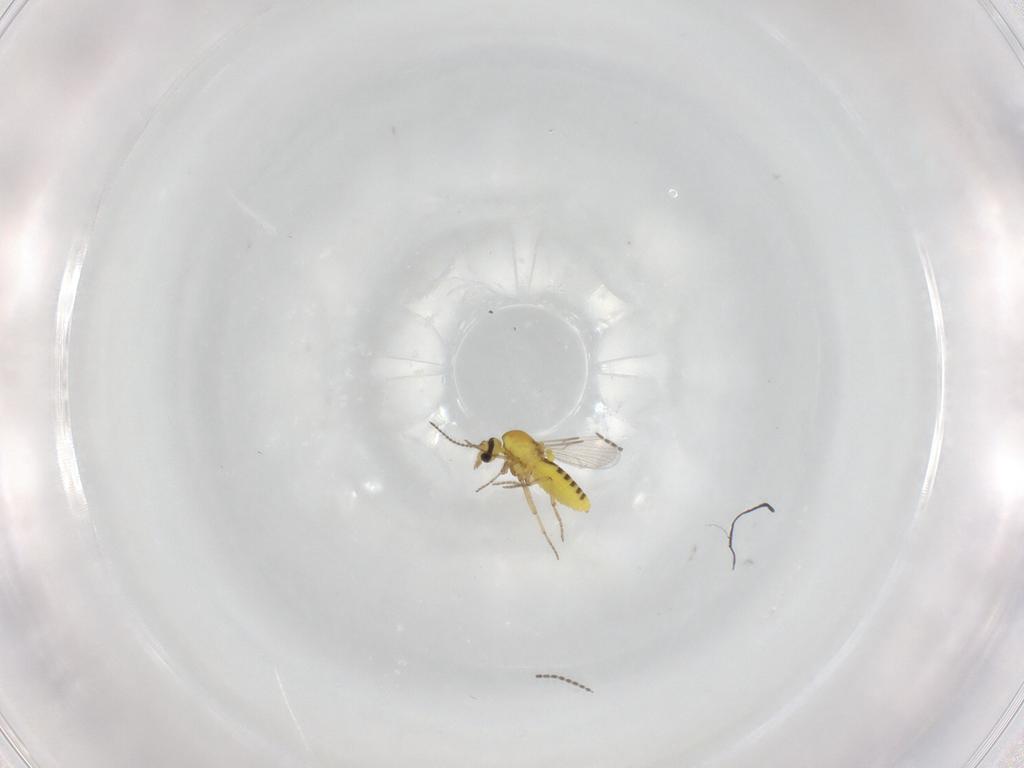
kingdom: Animalia
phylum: Arthropoda
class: Insecta
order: Diptera
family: Ceratopogonidae
